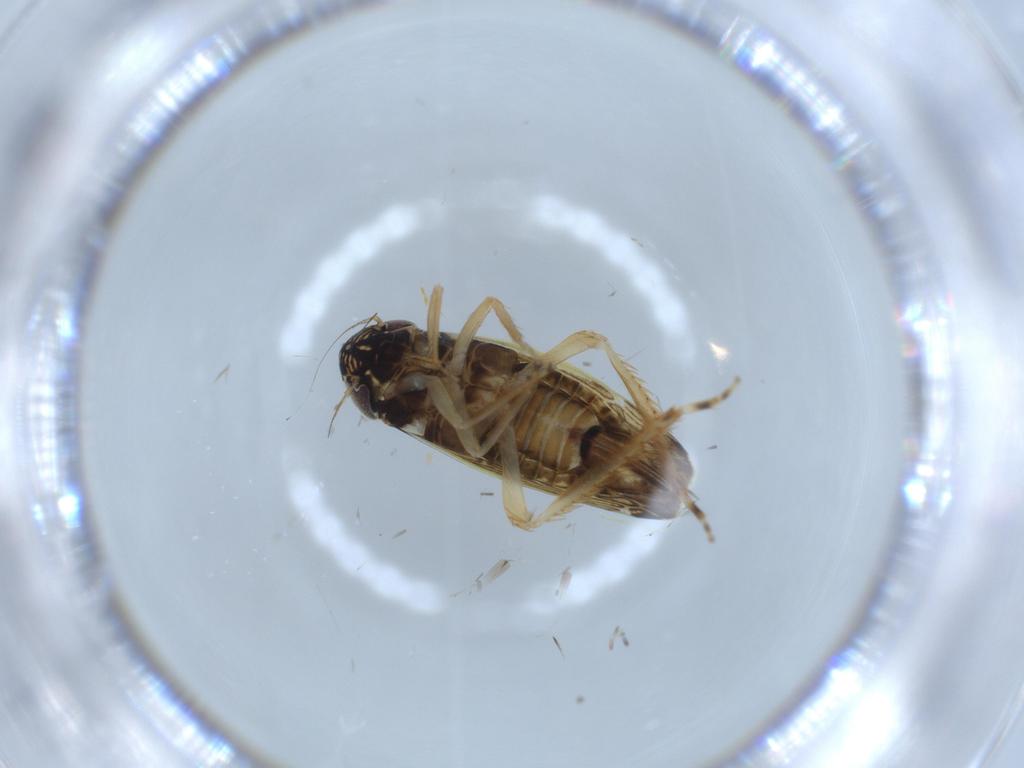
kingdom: Animalia
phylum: Arthropoda
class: Insecta
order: Hemiptera
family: Cicadellidae
